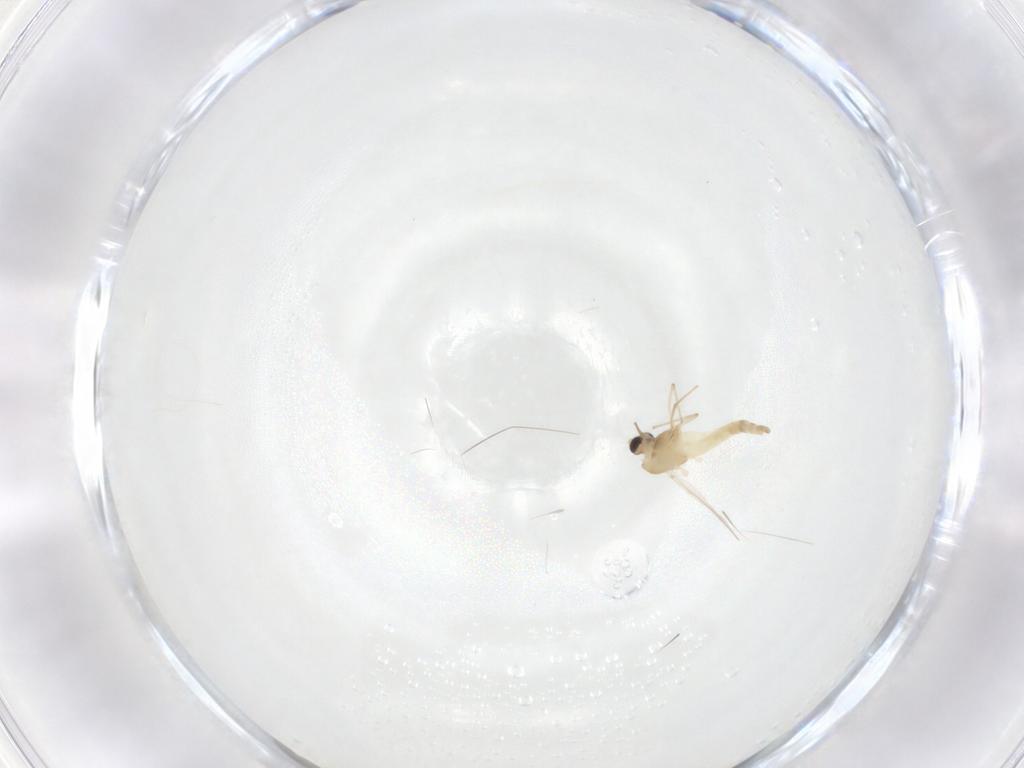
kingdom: Animalia
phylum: Arthropoda
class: Insecta
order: Diptera
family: Chironomidae
